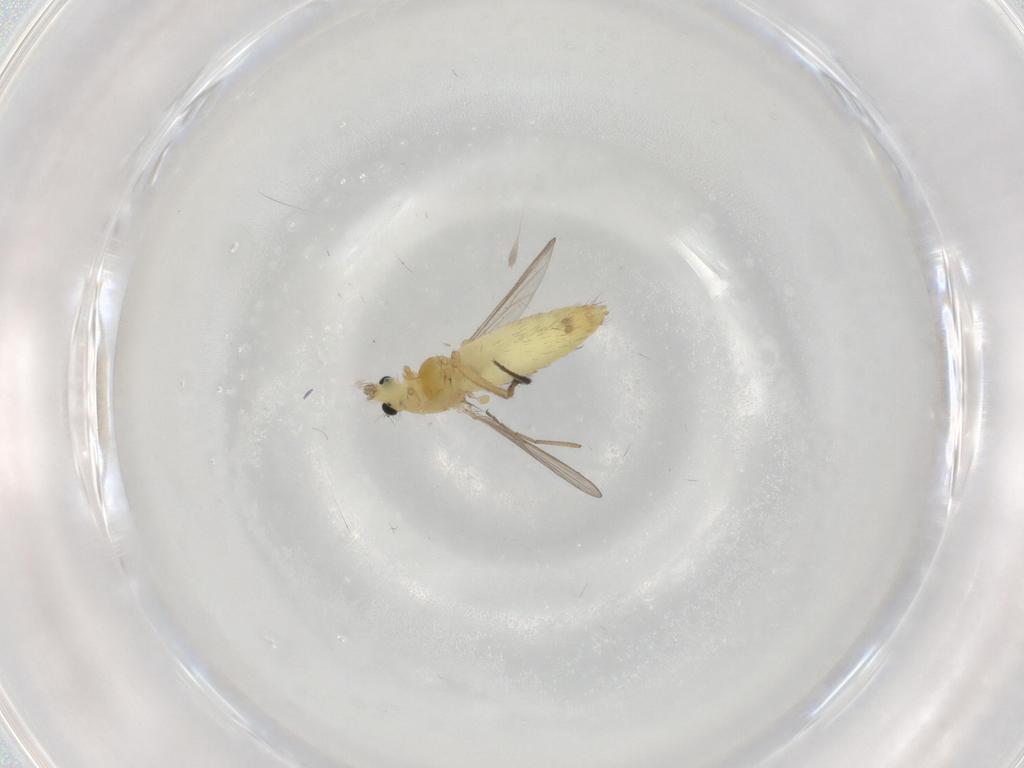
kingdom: Animalia
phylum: Arthropoda
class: Insecta
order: Diptera
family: Chironomidae
